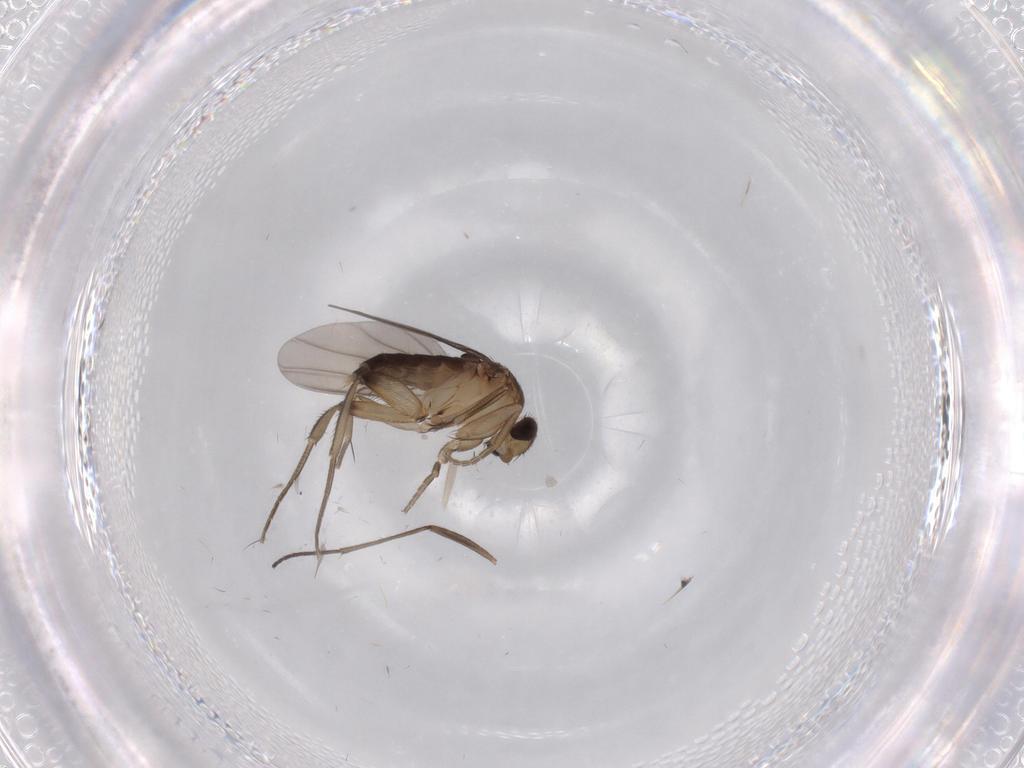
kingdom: Animalia
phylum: Arthropoda
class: Insecta
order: Diptera
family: Phoridae
